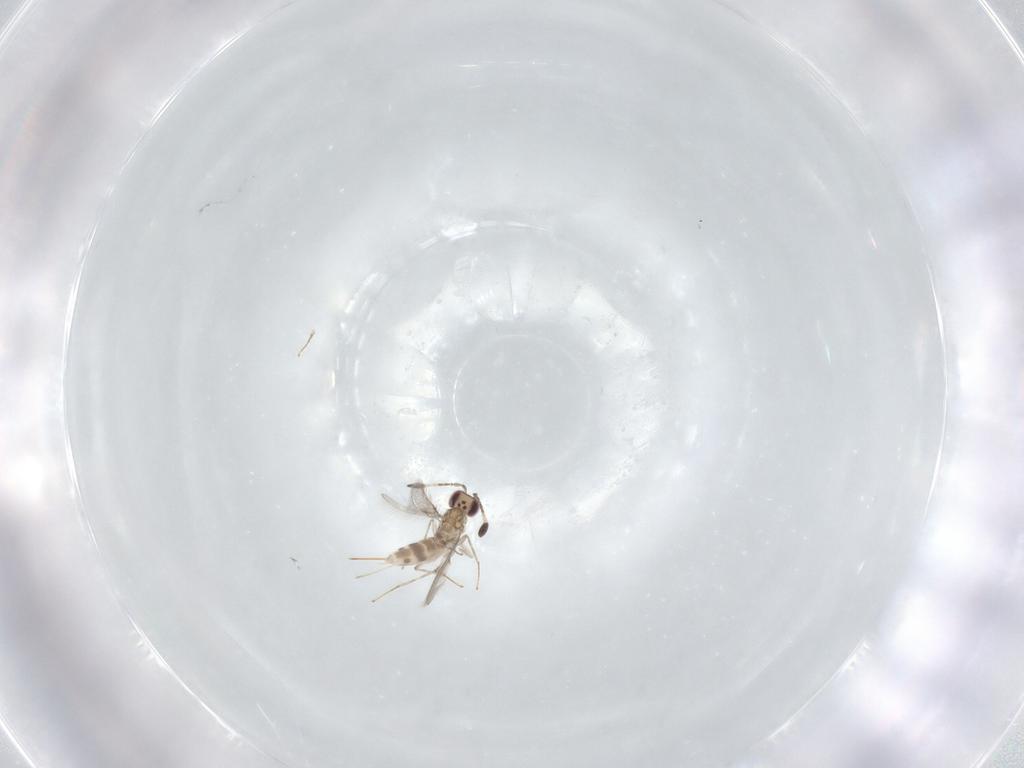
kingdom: Animalia
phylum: Arthropoda
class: Insecta
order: Hymenoptera
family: Mymaridae
